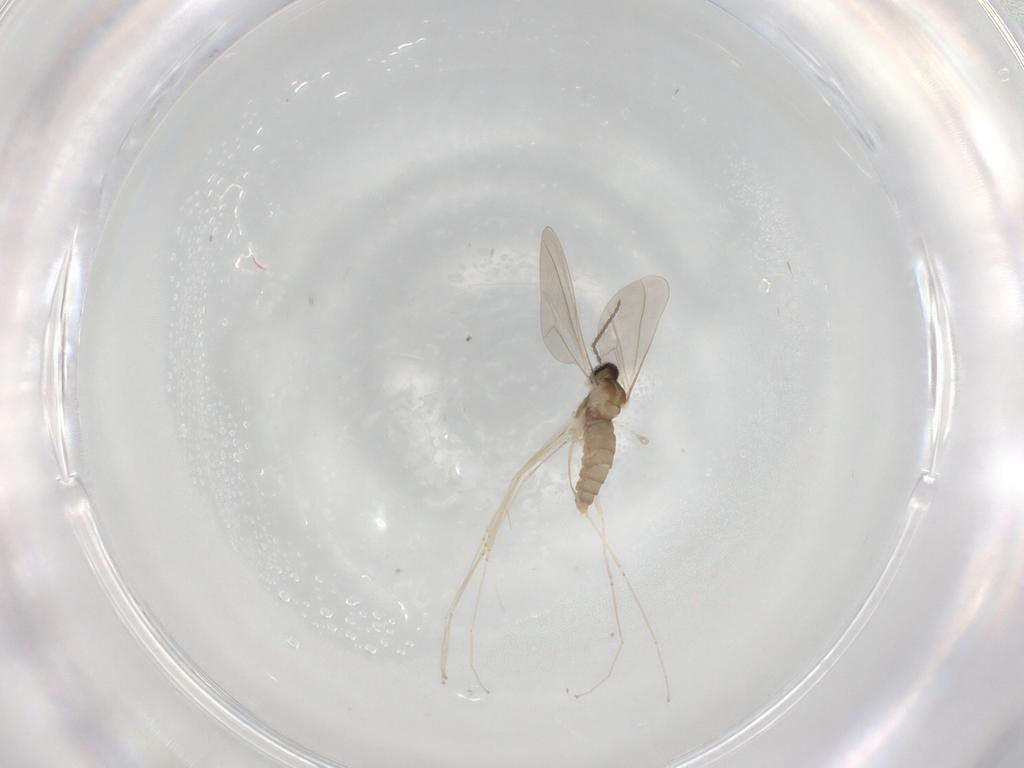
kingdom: Animalia
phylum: Arthropoda
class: Insecta
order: Diptera
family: Cecidomyiidae
